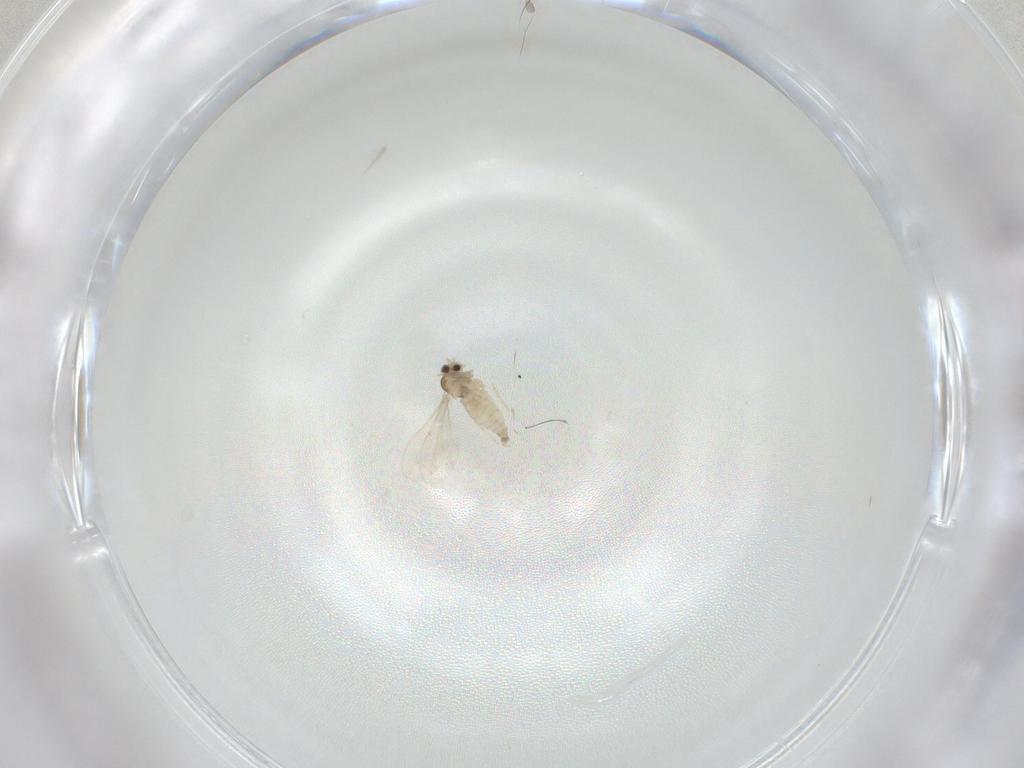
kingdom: Animalia
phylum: Arthropoda
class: Insecta
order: Diptera
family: Cecidomyiidae
